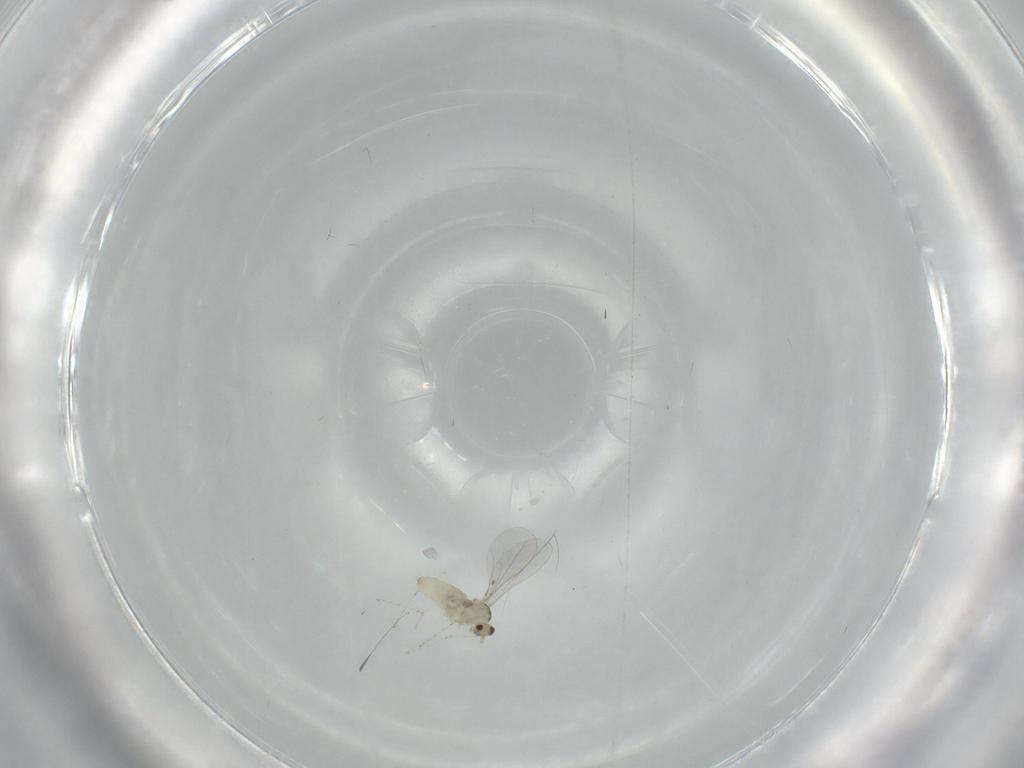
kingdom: Animalia
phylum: Arthropoda
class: Insecta
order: Diptera
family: Cecidomyiidae
